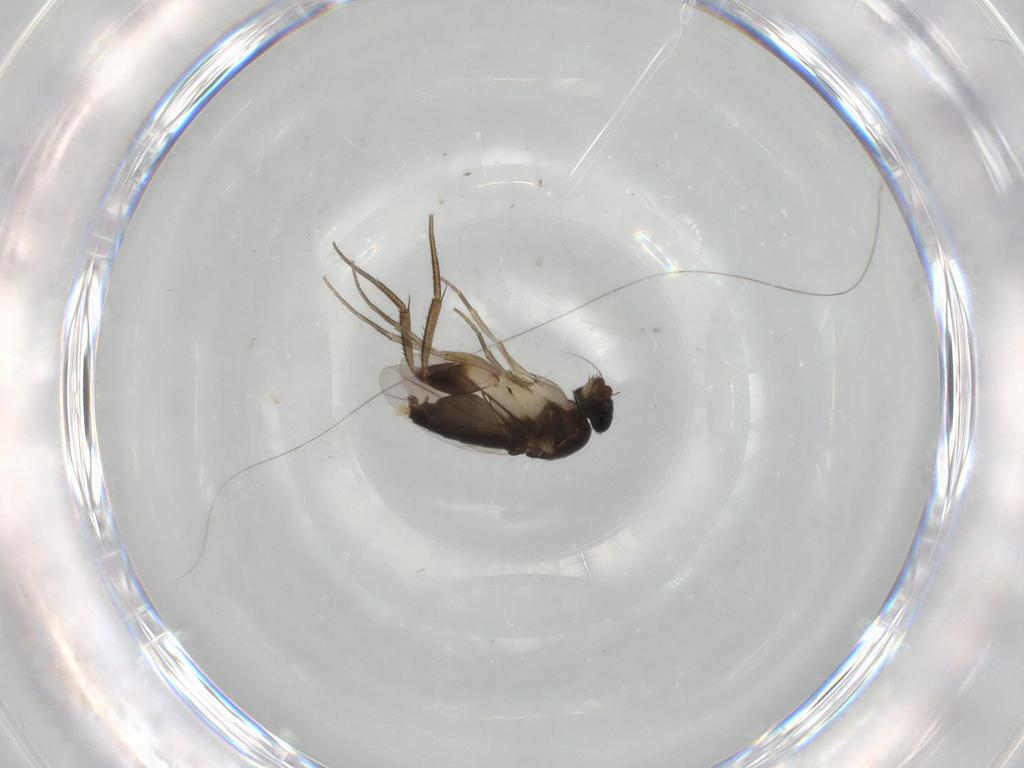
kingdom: Animalia
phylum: Arthropoda
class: Insecta
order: Diptera
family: Phoridae
